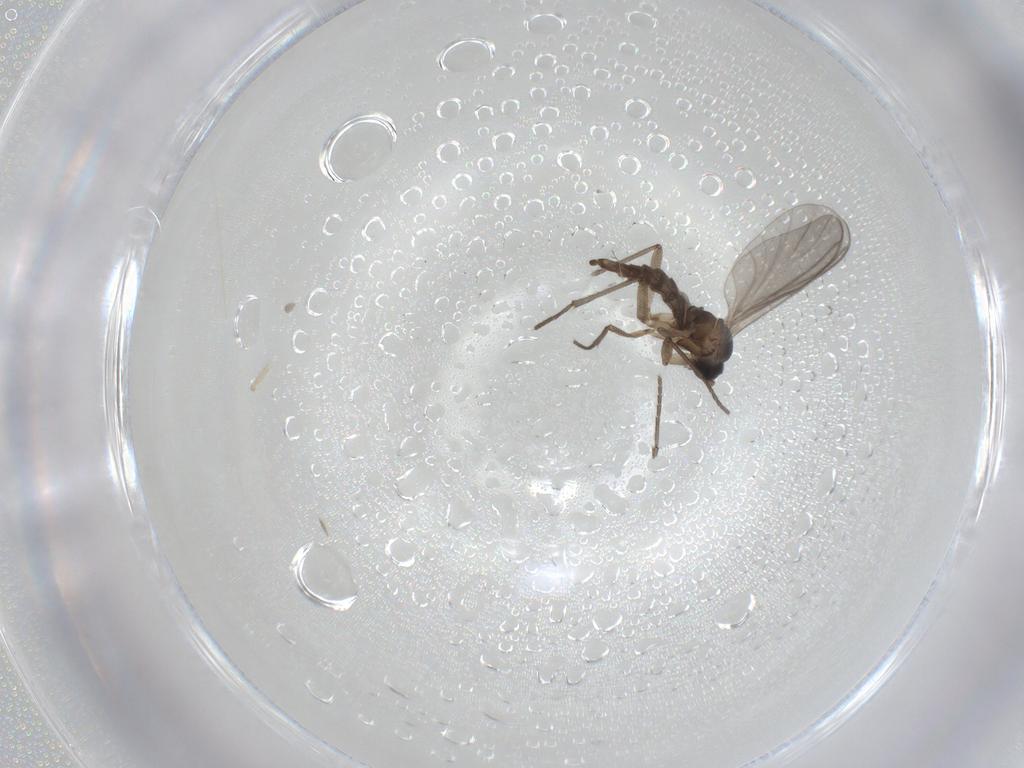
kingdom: Animalia
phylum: Arthropoda
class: Insecta
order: Diptera
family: Sciaridae
